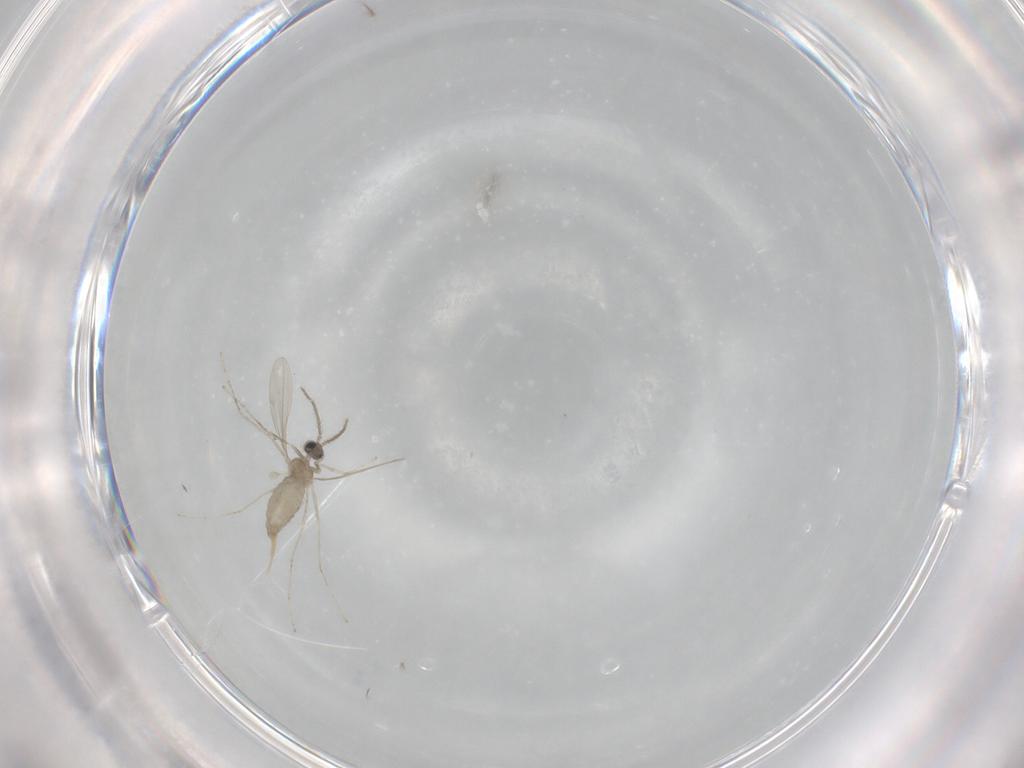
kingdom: Animalia
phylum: Arthropoda
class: Insecta
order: Diptera
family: Cecidomyiidae
